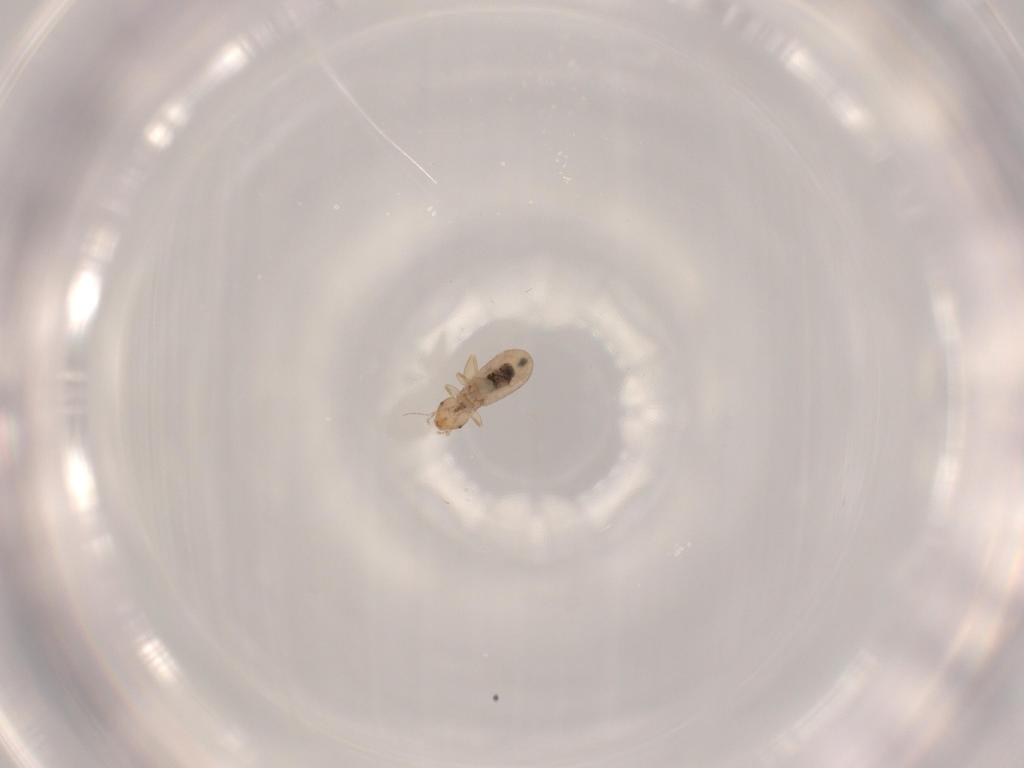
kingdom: Animalia
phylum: Arthropoda
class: Insecta
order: Psocodea
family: Liposcelididae
